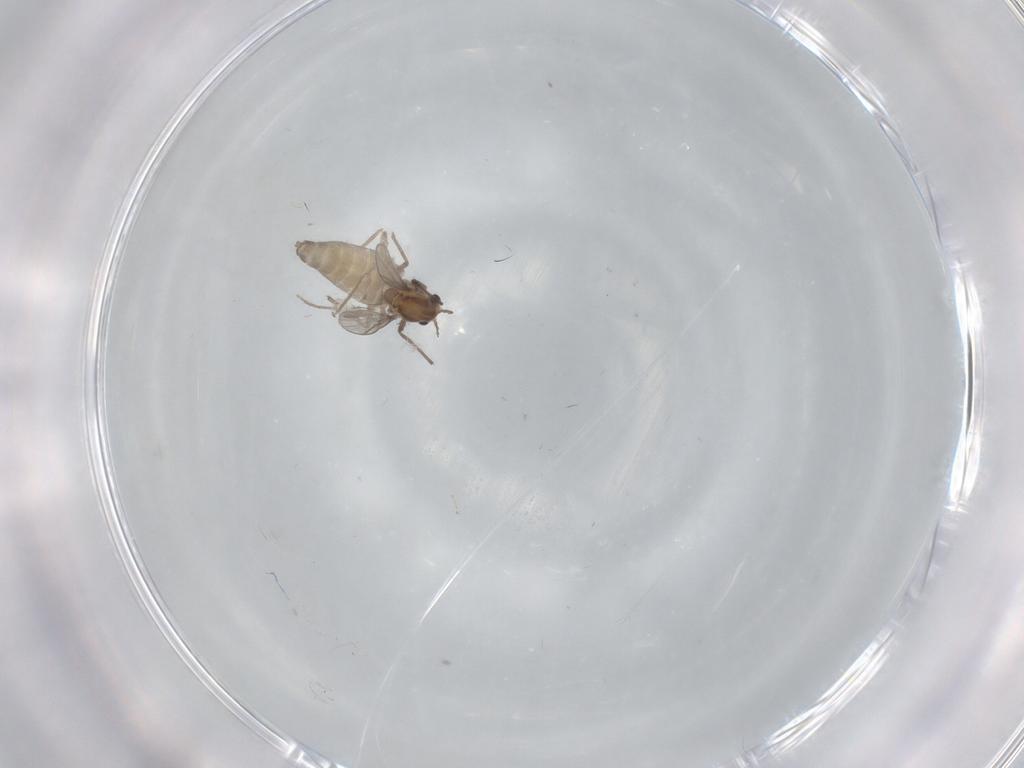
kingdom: Animalia
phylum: Arthropoda
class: Insecta
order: Diptera
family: Chironomidae
